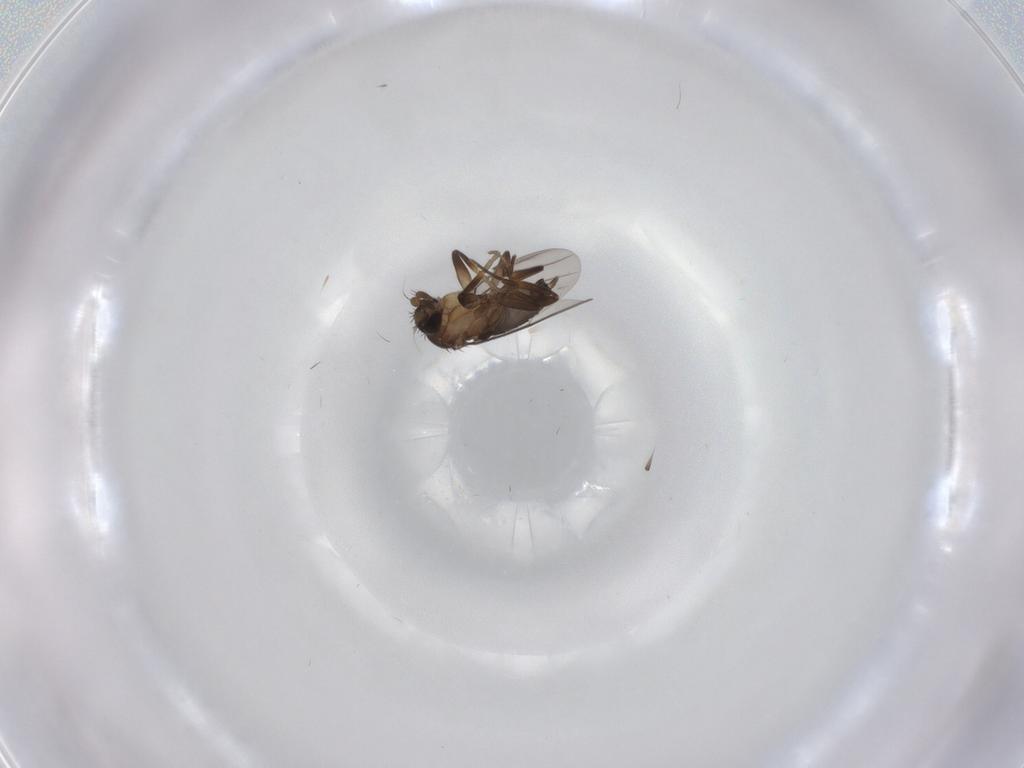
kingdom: Animalia
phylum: Arthropoda
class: Insecta
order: Diptera
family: Phoridae
